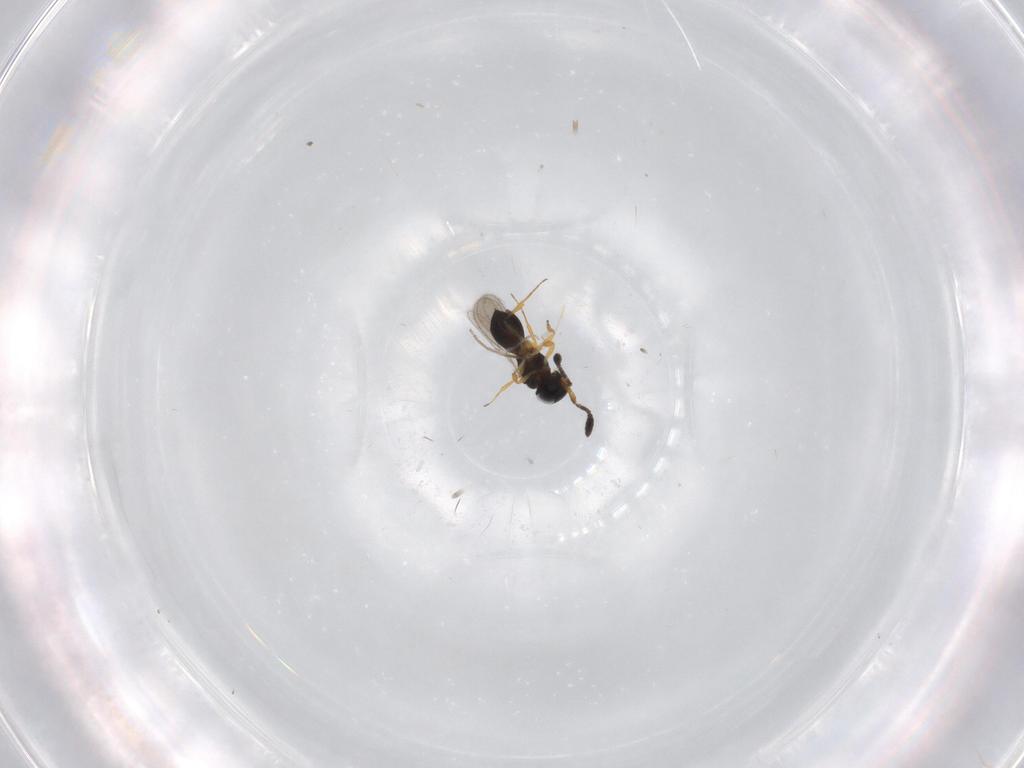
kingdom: Animalia
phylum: Arthropoda
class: Insecta
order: Hymenoptera
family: Scelionidae
